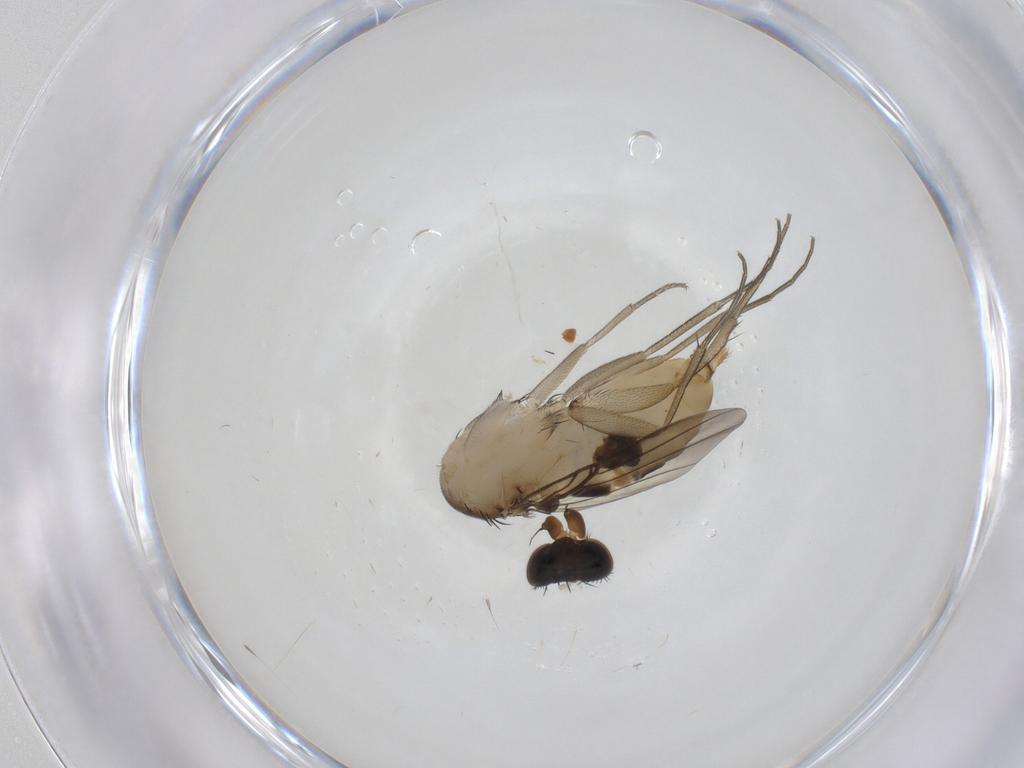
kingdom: Animalia
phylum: Arthropoda
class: Insecta
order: Diptera
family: Phoridae
